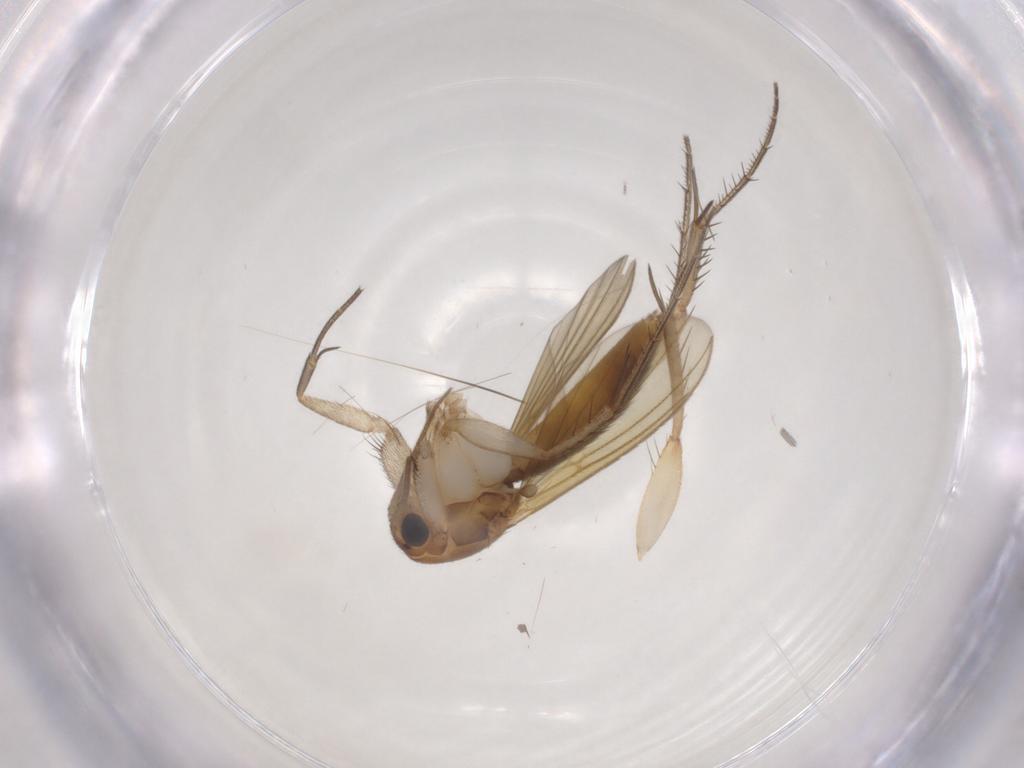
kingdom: Animalia
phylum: Arthropoda
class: Insecta
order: Diptera
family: Mycetophilidae
